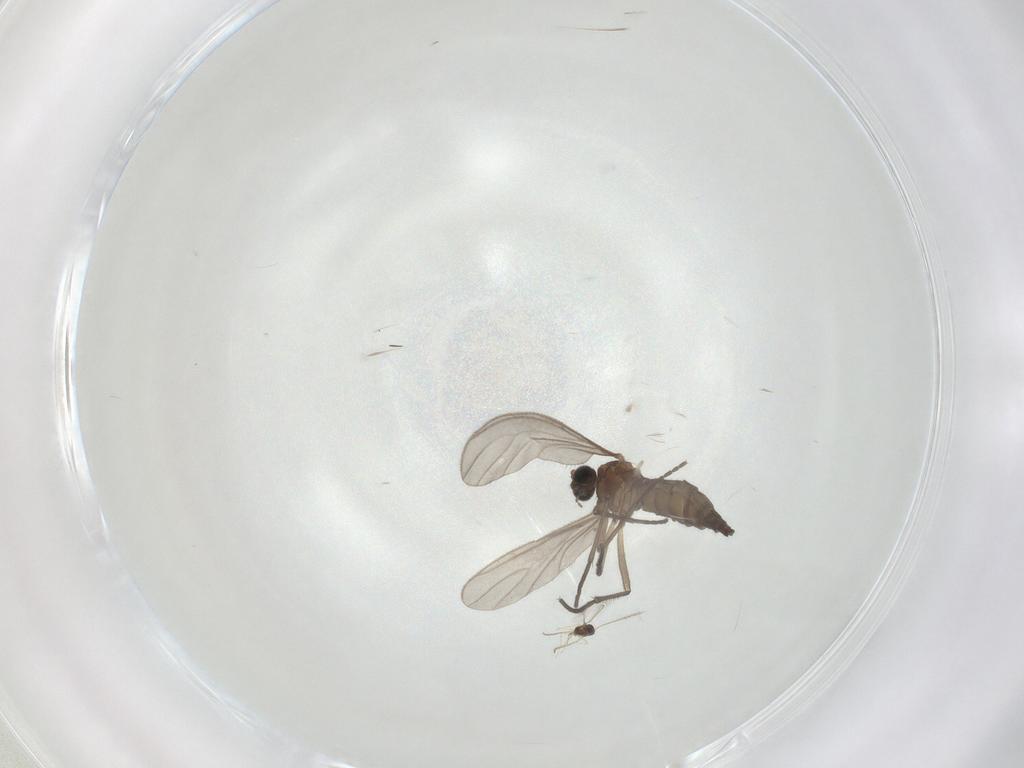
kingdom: Animalia
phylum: Arthropoda
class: Insecta
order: Diptera
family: Sciaridae
